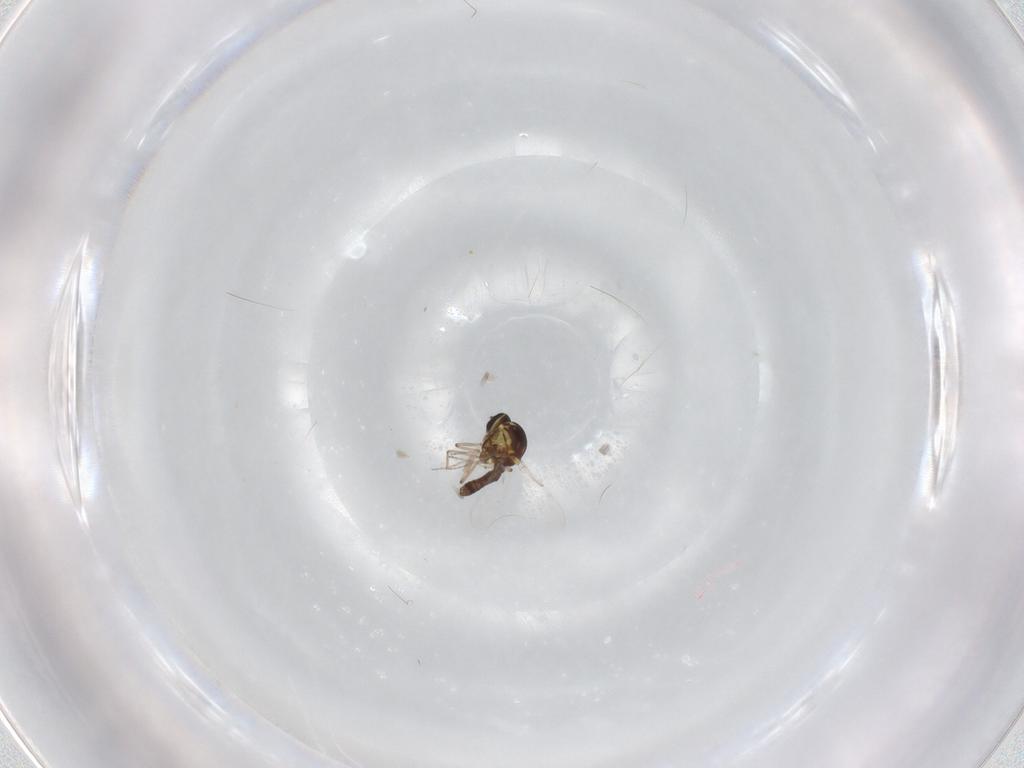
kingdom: Animalia
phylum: Arthropoda
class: Insecta
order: Diptera
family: Ceratopogonidae
